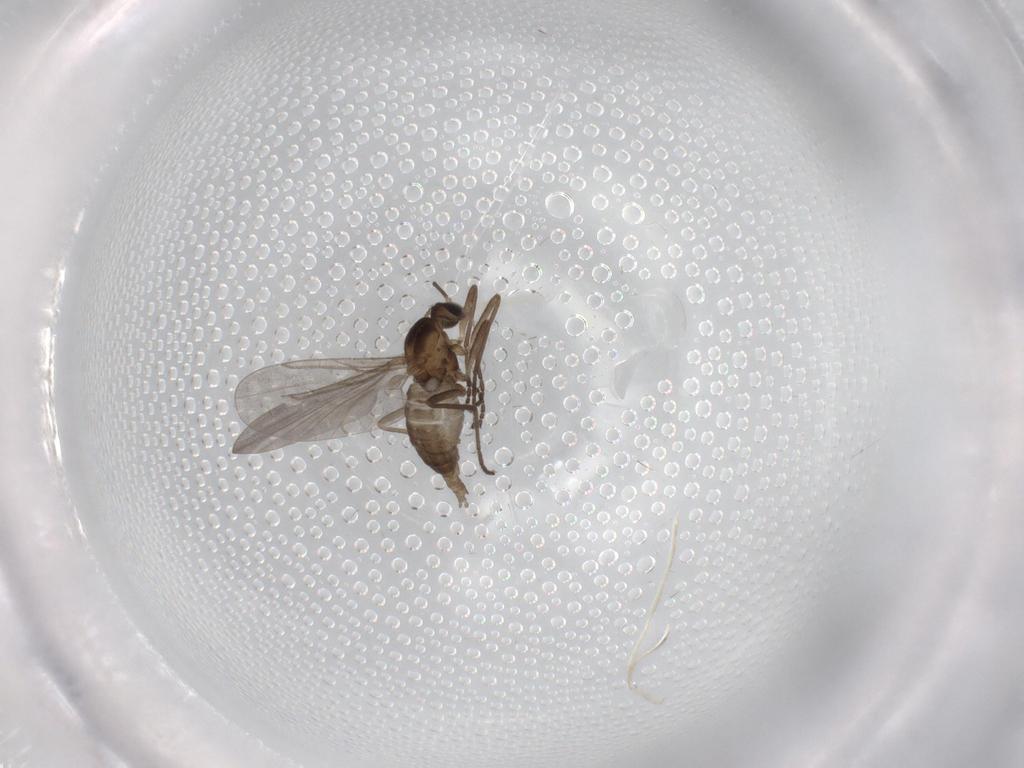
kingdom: Animalia
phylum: Arthropoda
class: Insecta
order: Diptera
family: Cecidomyiidae
